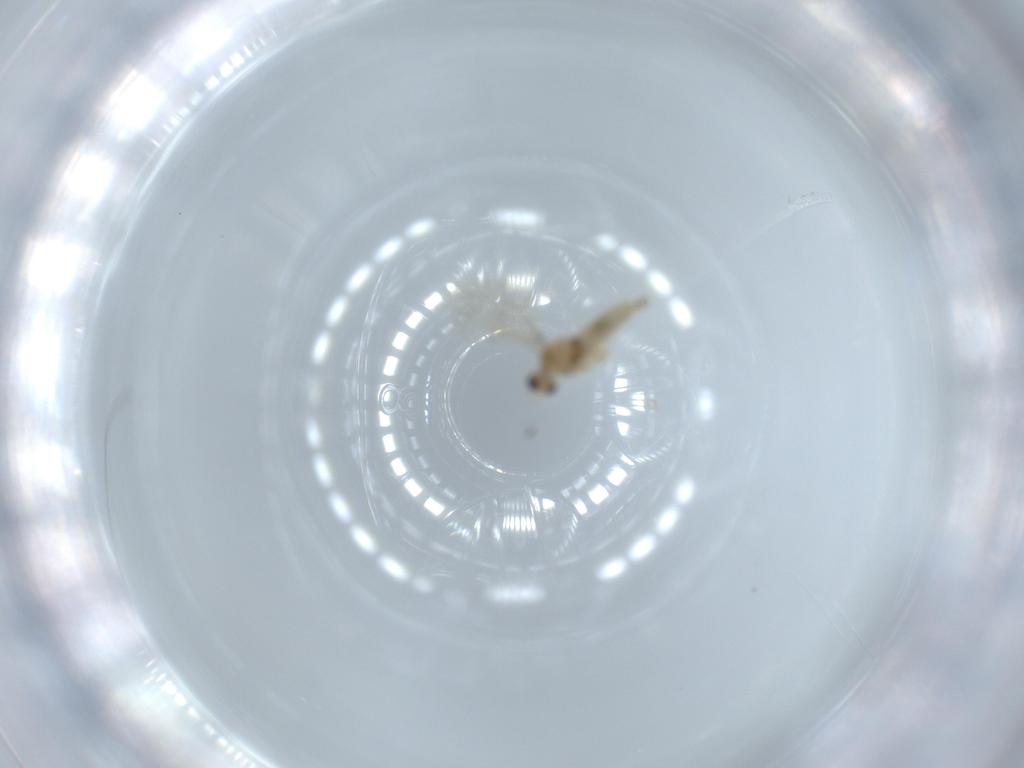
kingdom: Animalia
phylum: Arthropoda
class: Insecta
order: Diptera
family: Cecidomyiidae
